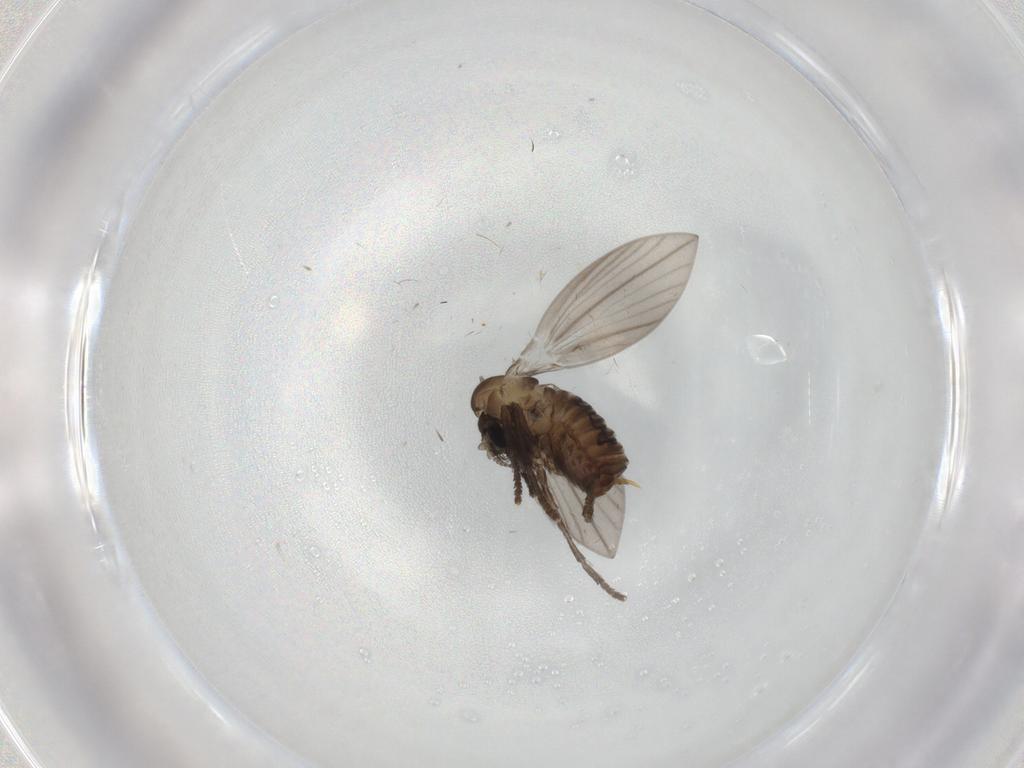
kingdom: Animalia
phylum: Arthropoda
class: Insecta
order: Diptera
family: Psychodidae
